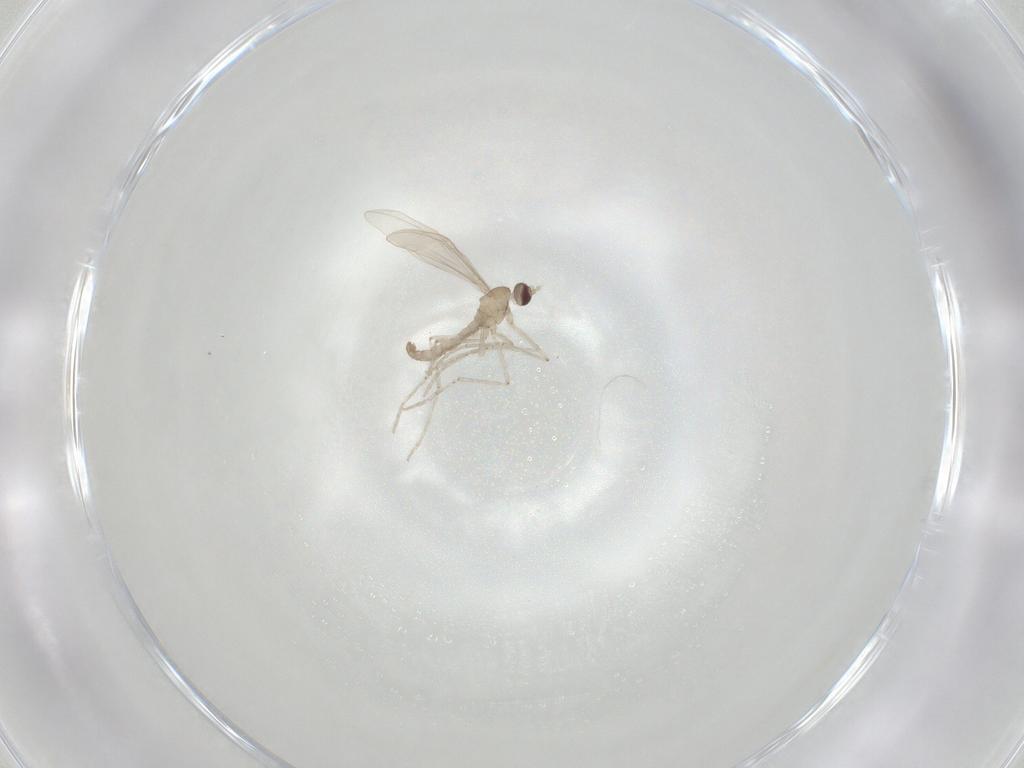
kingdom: Animalia
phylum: Arthropoda
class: Insecta
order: Diptera
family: Cecidomyiidae
